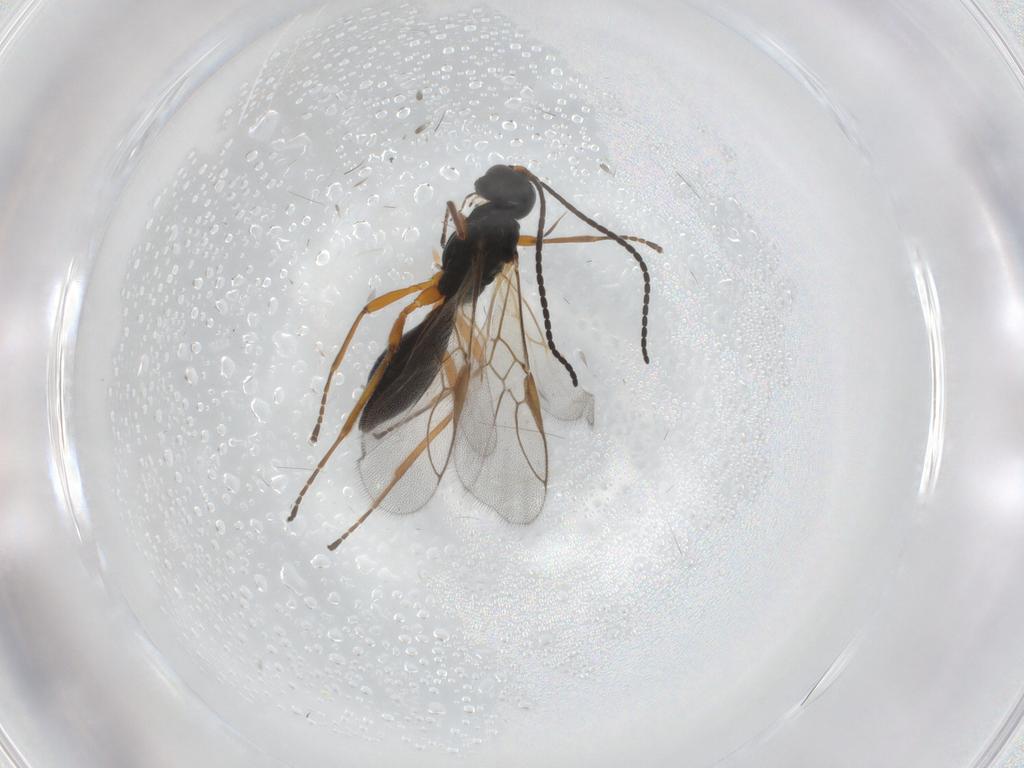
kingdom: Animalia
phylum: Arthropoda
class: Insecta
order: Hymenoptera
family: Braconidae
